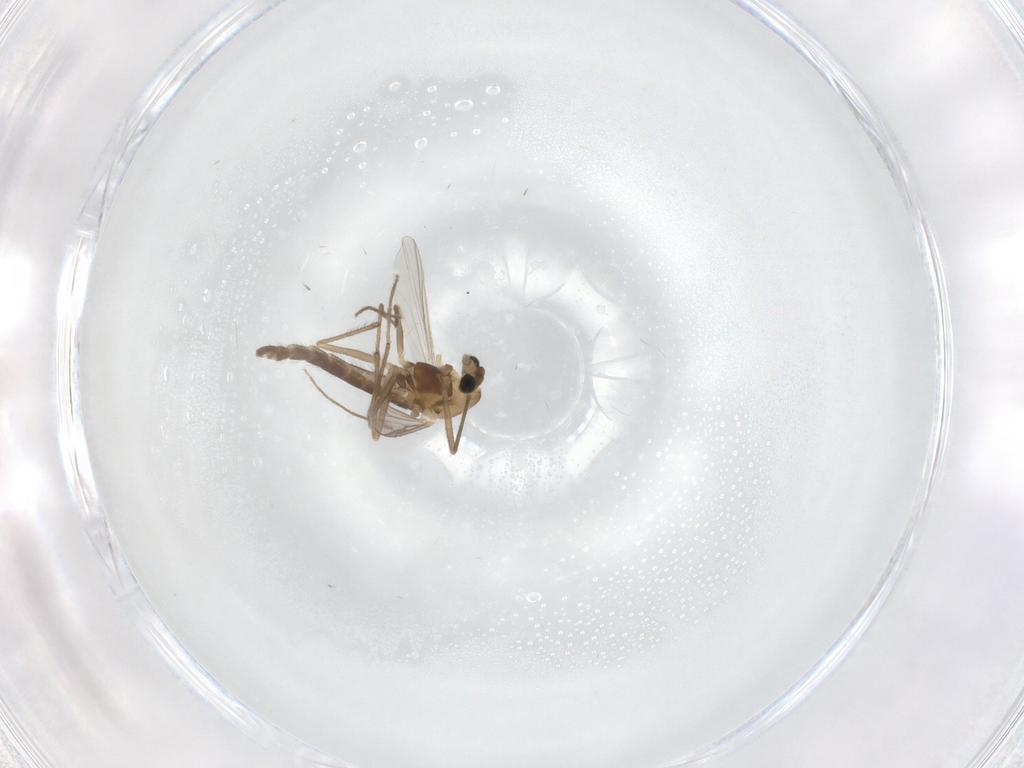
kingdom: Animalia
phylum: Arthropoda
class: Insecta
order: Diptera
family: Chironomidae
